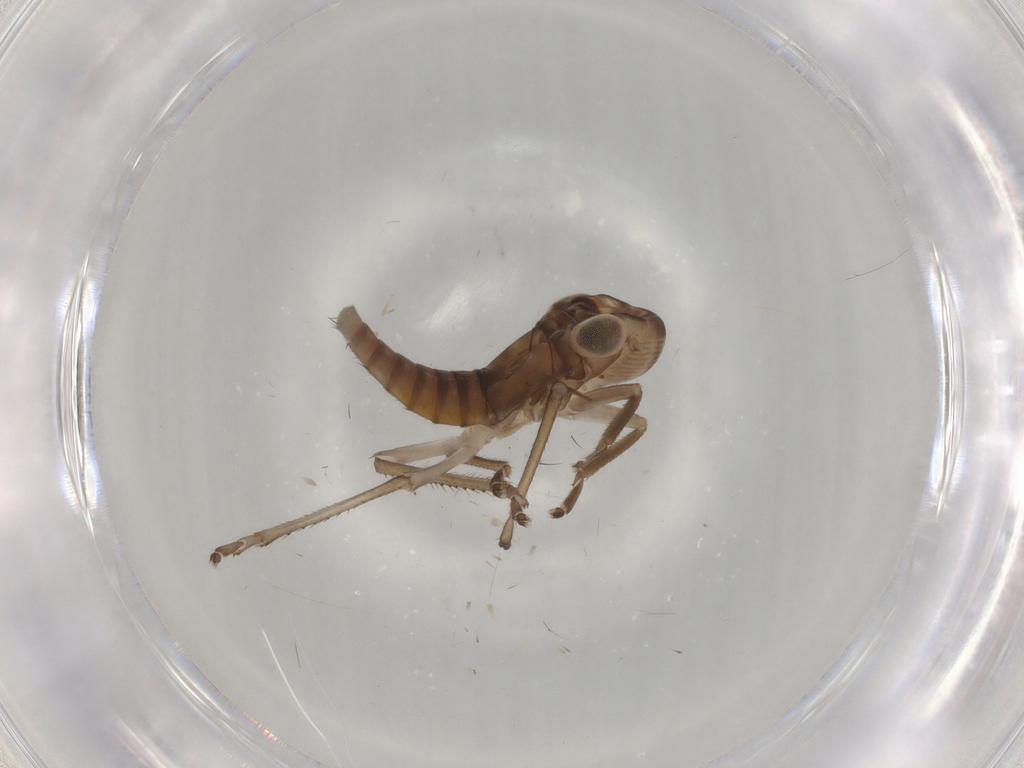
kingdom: Animalia
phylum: Arthropoda
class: Insecta
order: Hemiptera
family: Cicadellidae
